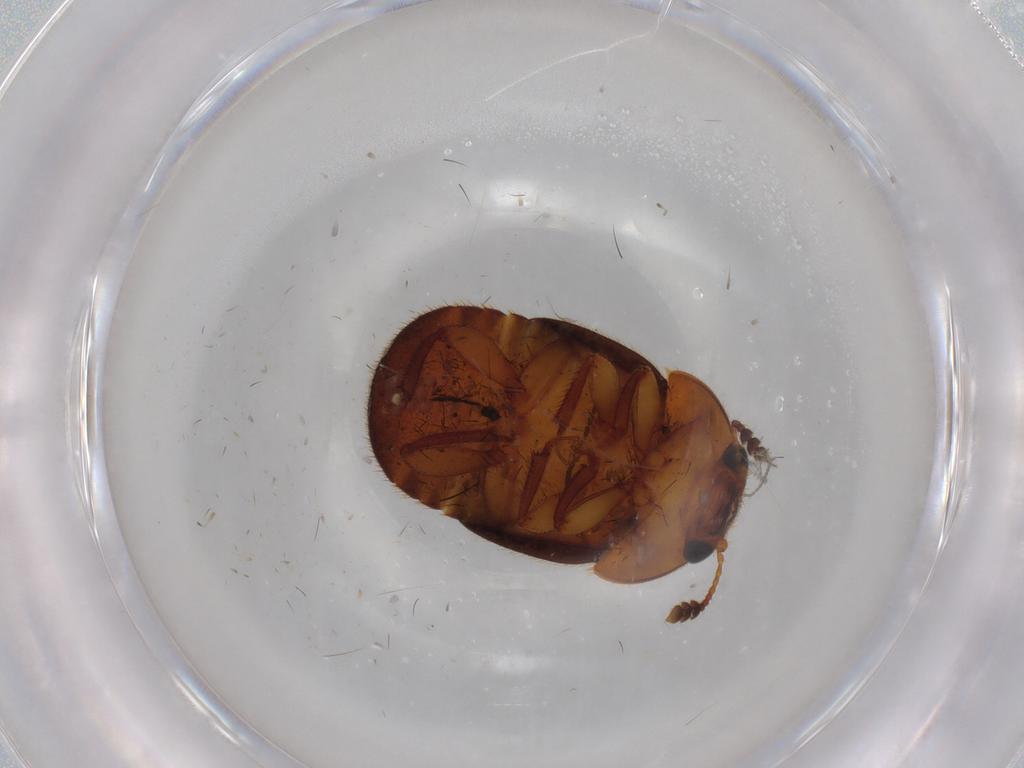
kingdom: Animalia
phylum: Arthropoda
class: Insecta
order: Coleoptera
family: Nitidulidae
